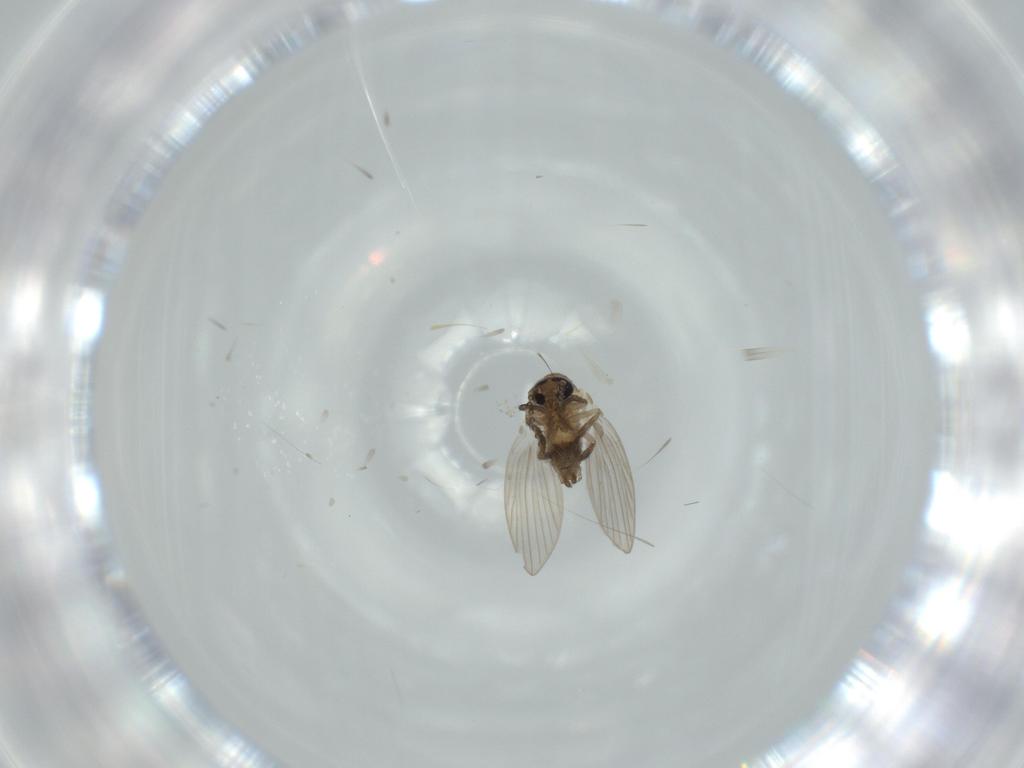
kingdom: Animalia
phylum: Arthropoda
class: Insecta
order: Diptera
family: Psychodidae
